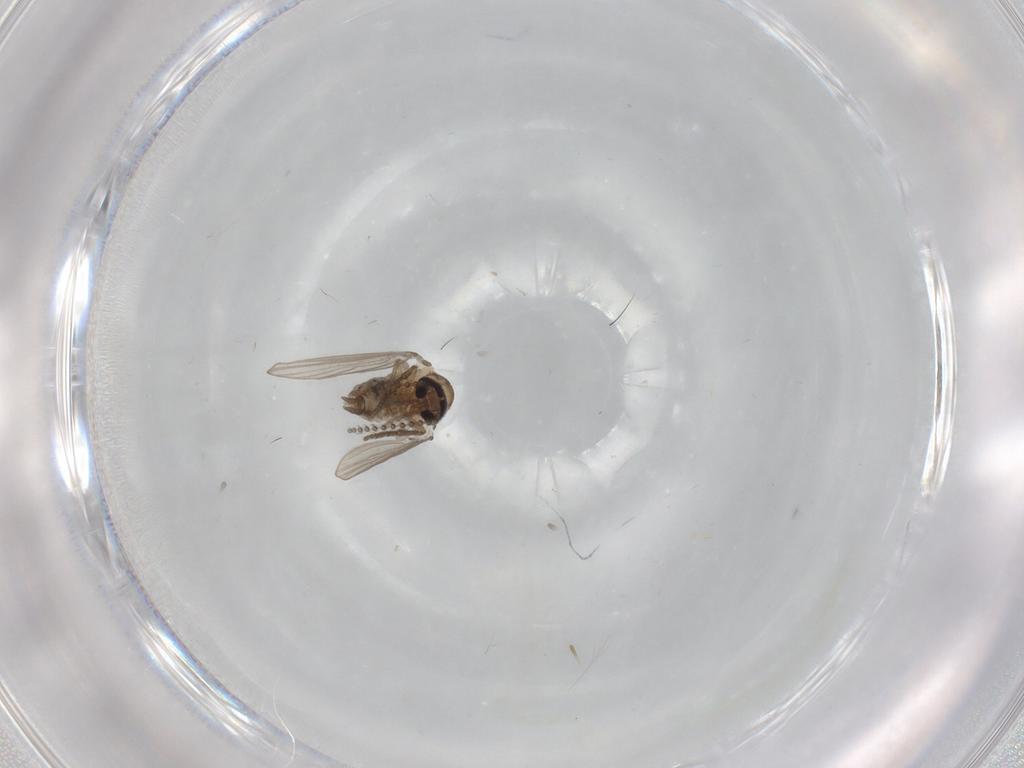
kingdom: Animalia
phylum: Arthropoda
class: Insecta
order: Diptera
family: Psychodidae
